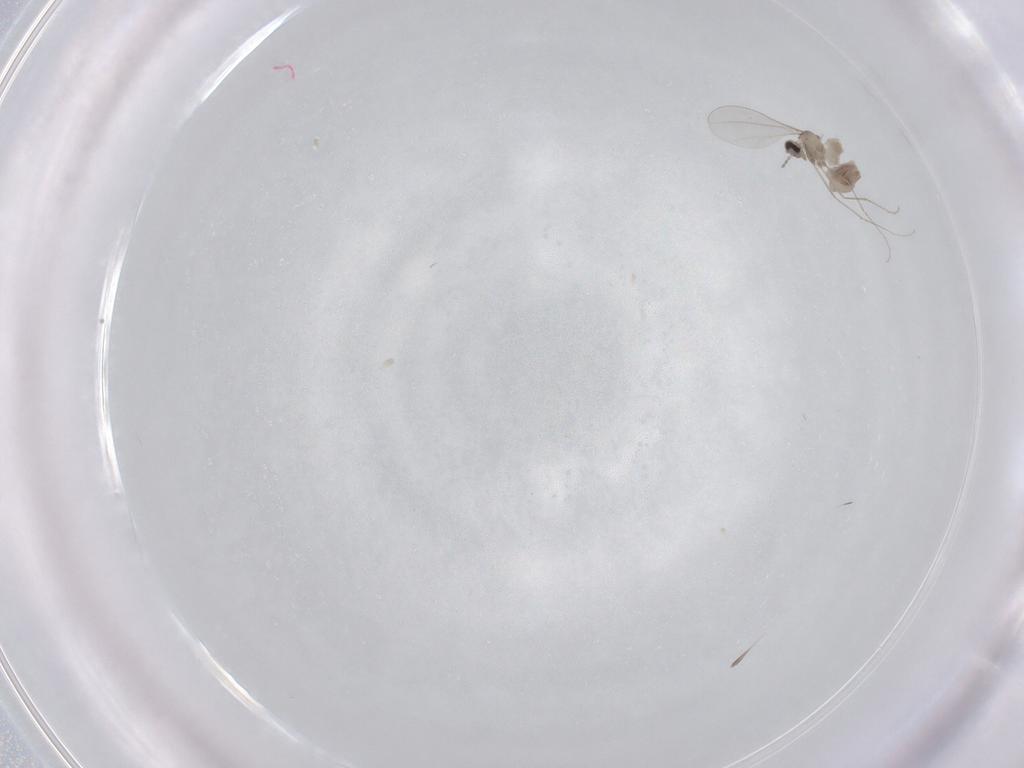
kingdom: Animalia
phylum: Arthropoda
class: Insecta
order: Diptera
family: Cecidomyiidae
